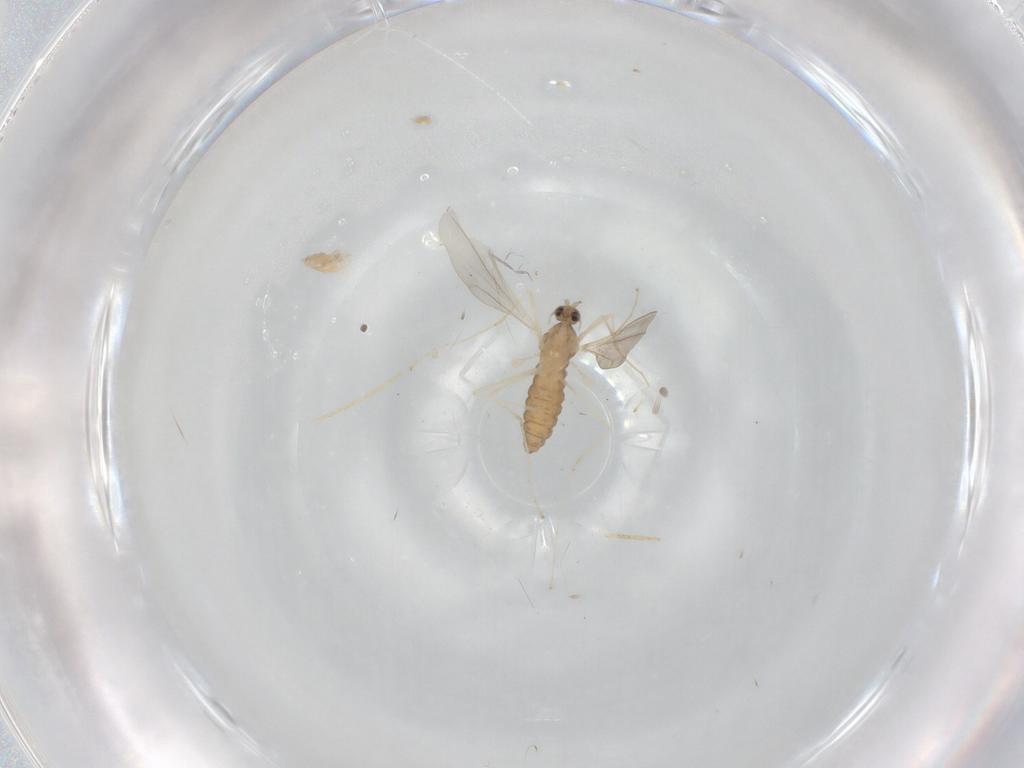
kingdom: Animalia
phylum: Arthropoda
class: Insecta
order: Diptera
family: Cecidomyiidae
